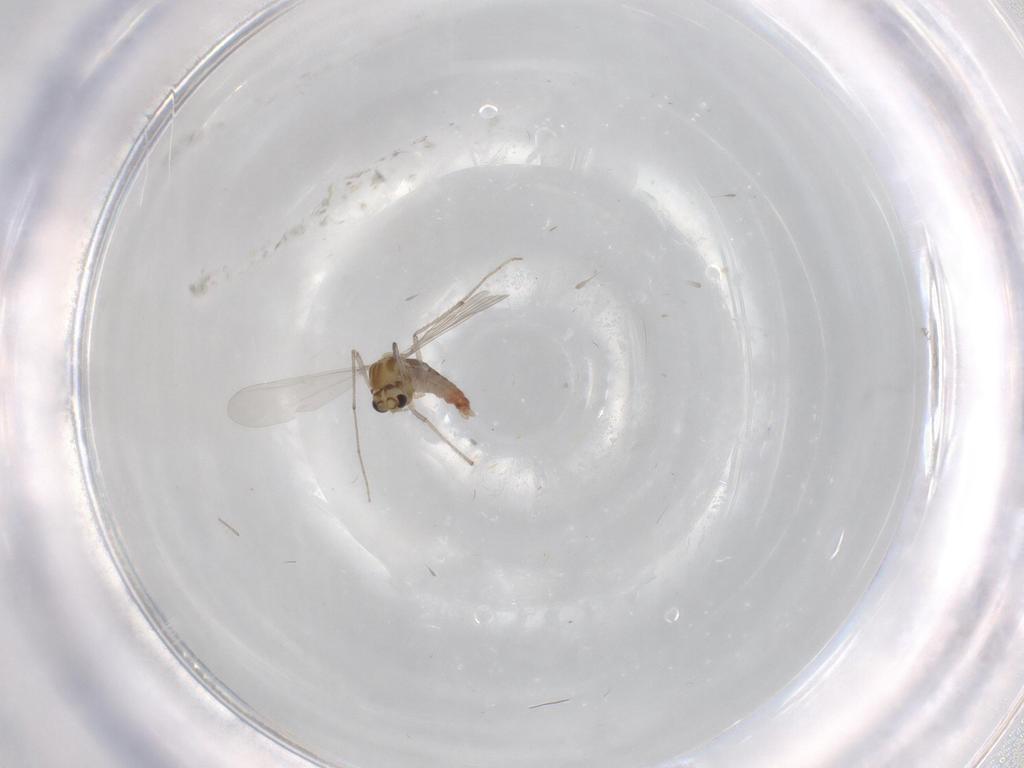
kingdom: Animalia
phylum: Arthropoda
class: Insecta
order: Diptera
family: Chironomidae
